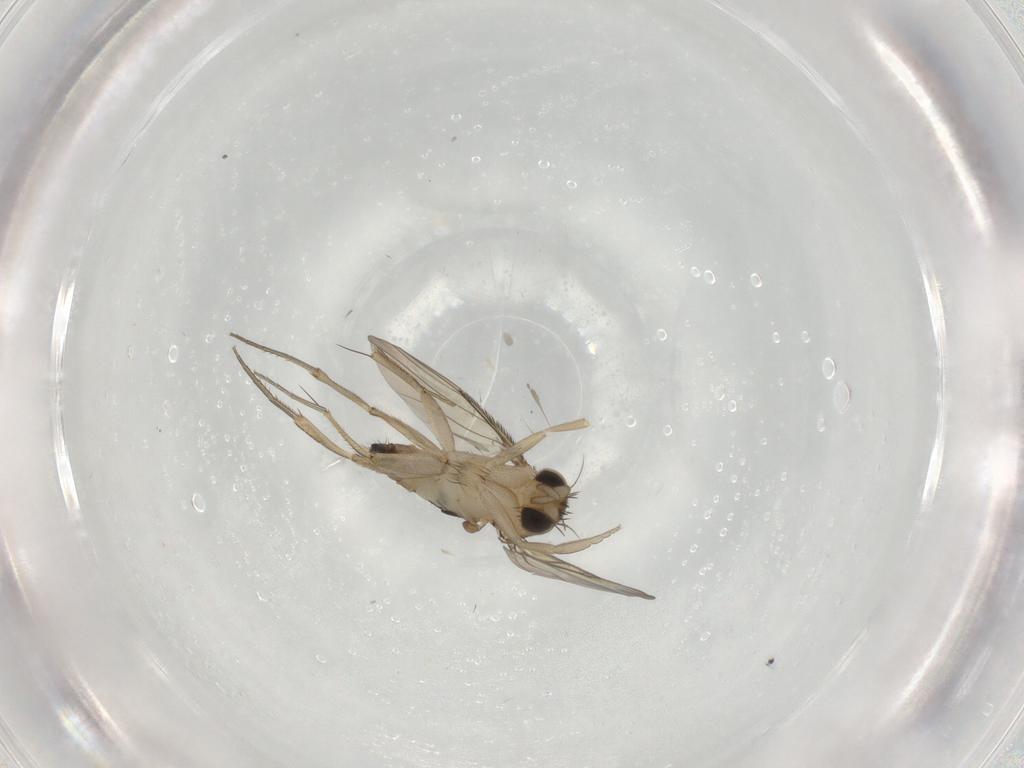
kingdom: Animalia
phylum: Arthropoda
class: Insecta
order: Diptera
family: Phoridae
